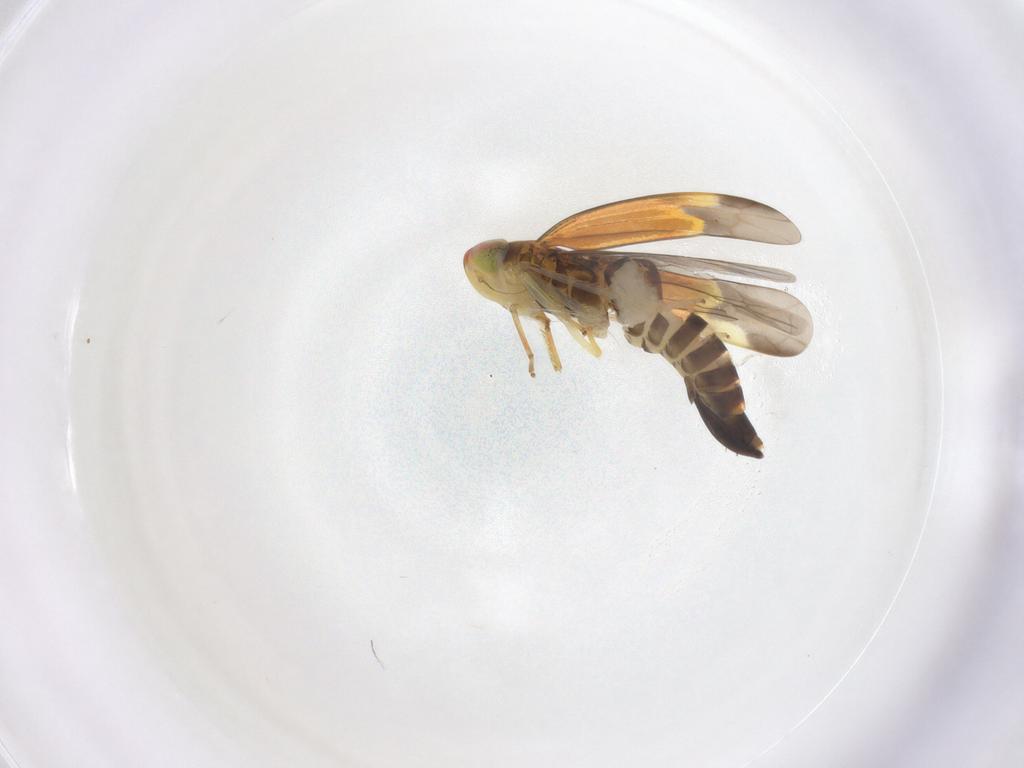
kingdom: Animalia
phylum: Arthropoda
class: Insecta
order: Hemiptera
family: Cicadellidae
